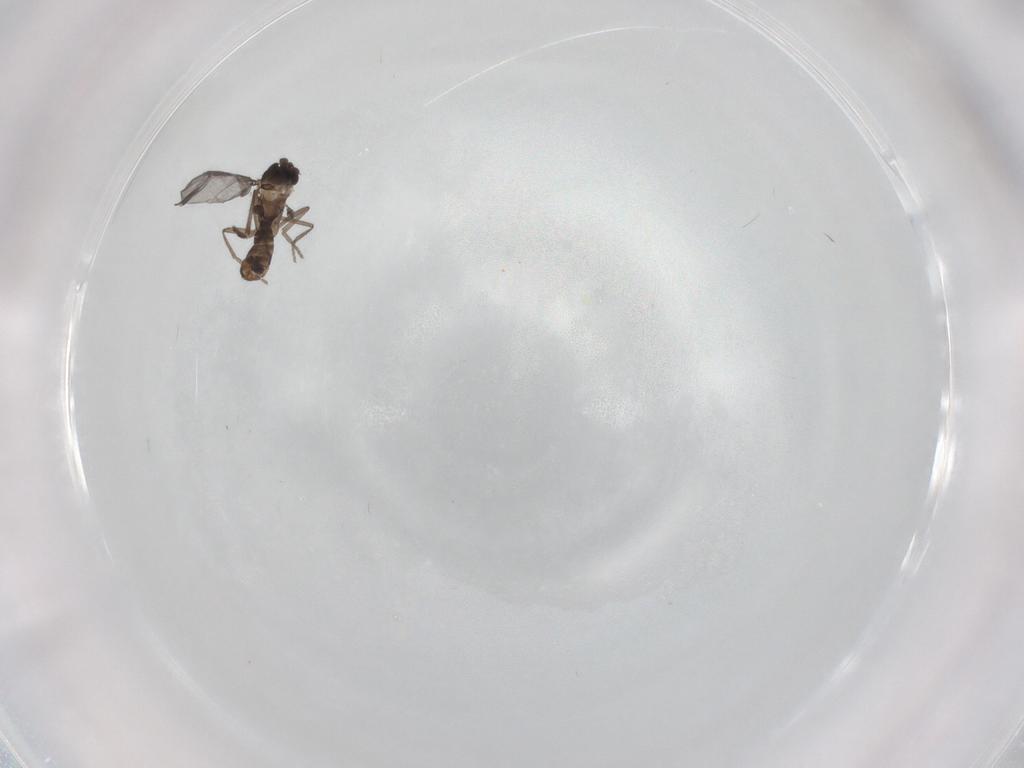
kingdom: Animalia
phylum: Arthropoda
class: Insecta
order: Diptera
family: Cecidomyiidae
